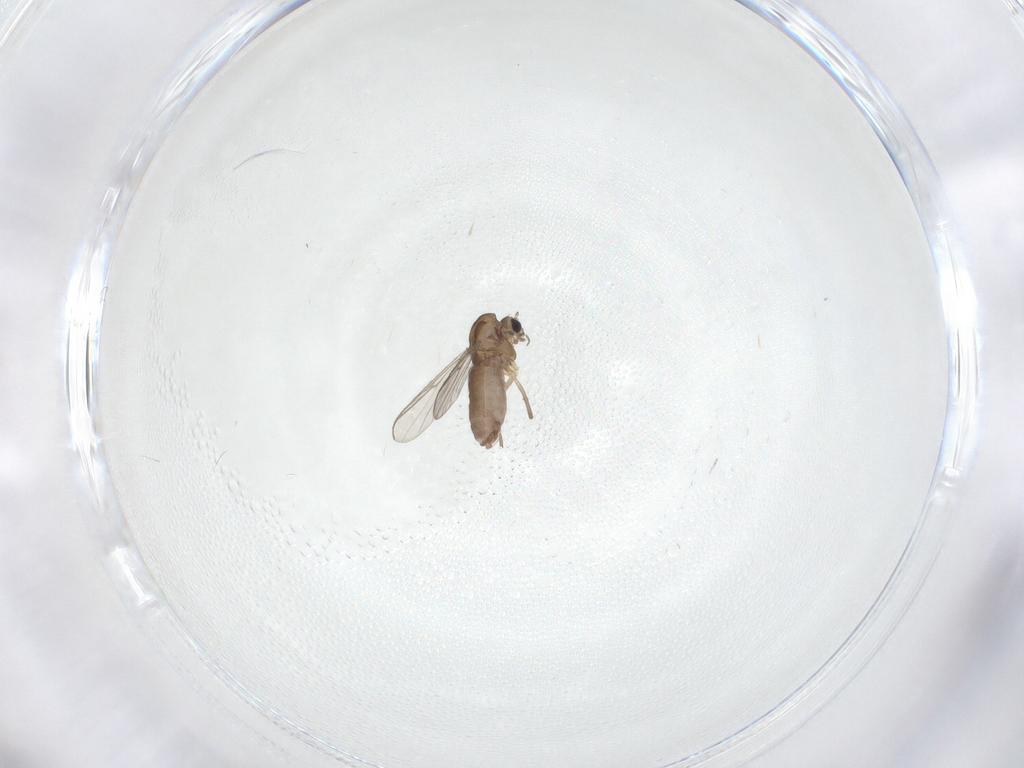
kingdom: Animalia
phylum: Arthropoda
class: Insecta
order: Diptera
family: Chironomidae
